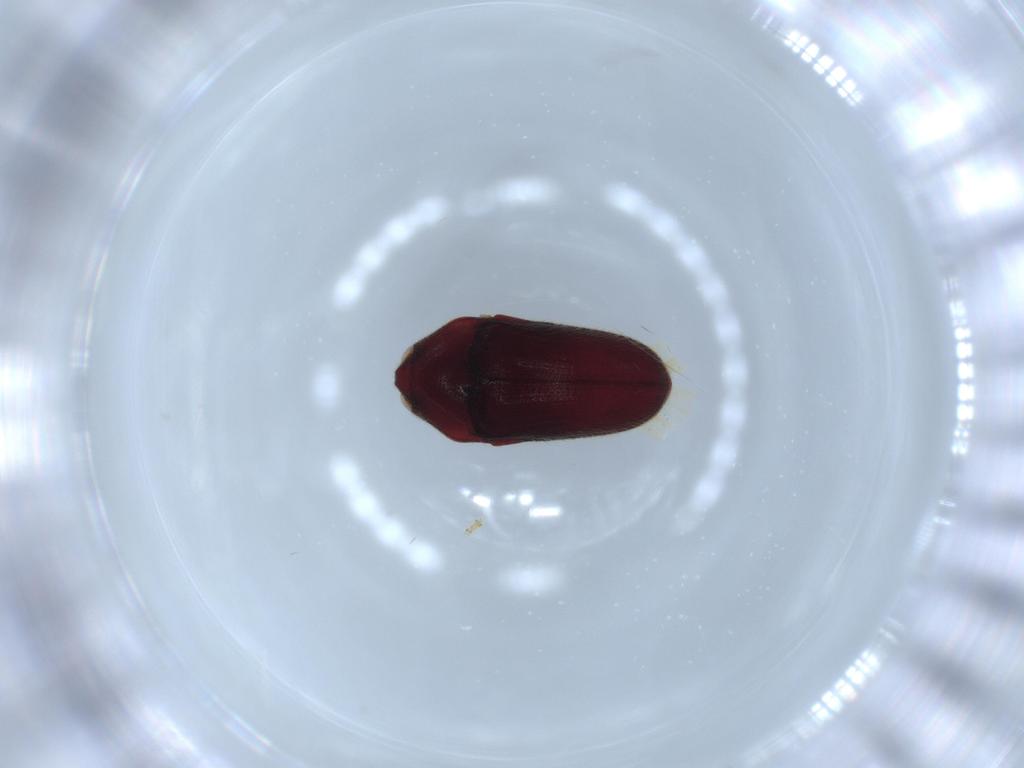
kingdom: Animalia
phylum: Arthropoda
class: Insecta
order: Coleoptera
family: Throscidae
